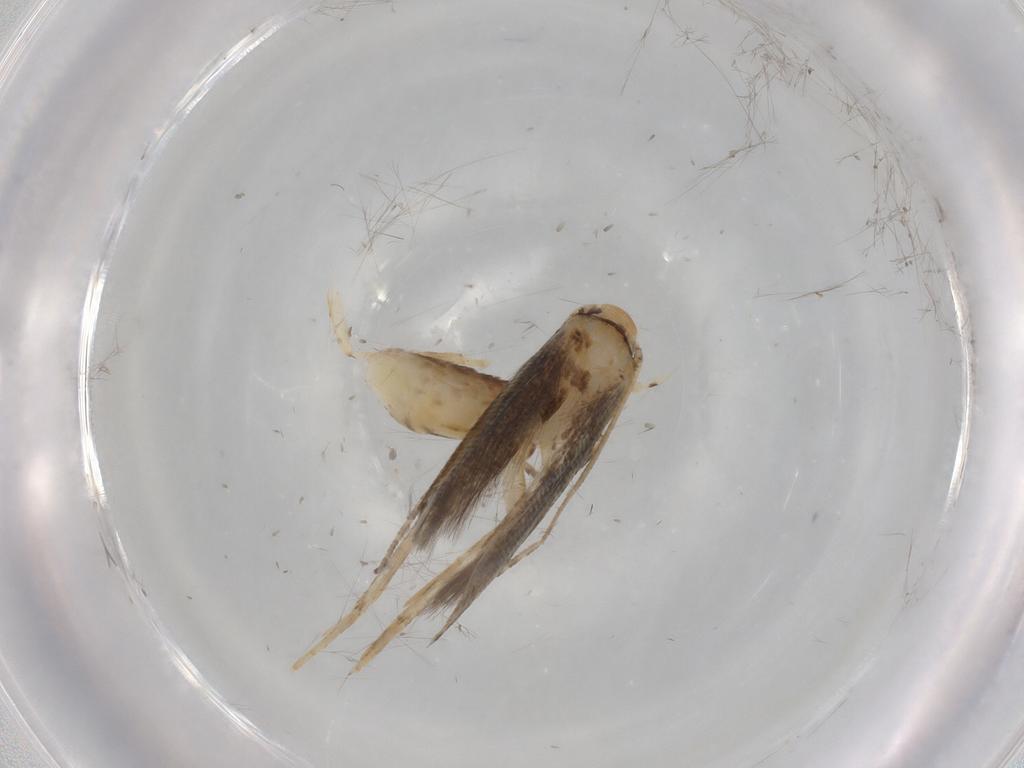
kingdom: Animalia
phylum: Arthropoda
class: Insecta
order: Lepidoptera
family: Momphidae
